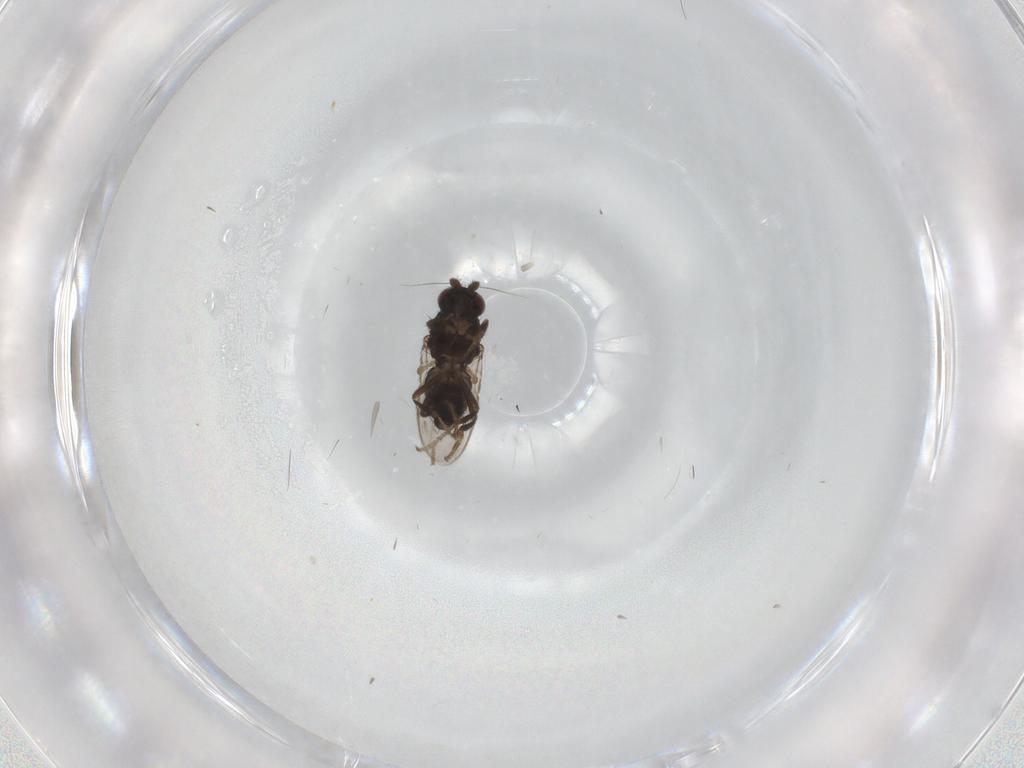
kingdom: Animalia
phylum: Arthropoda
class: Insecta
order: Diptera
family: Sphaeroceridae
